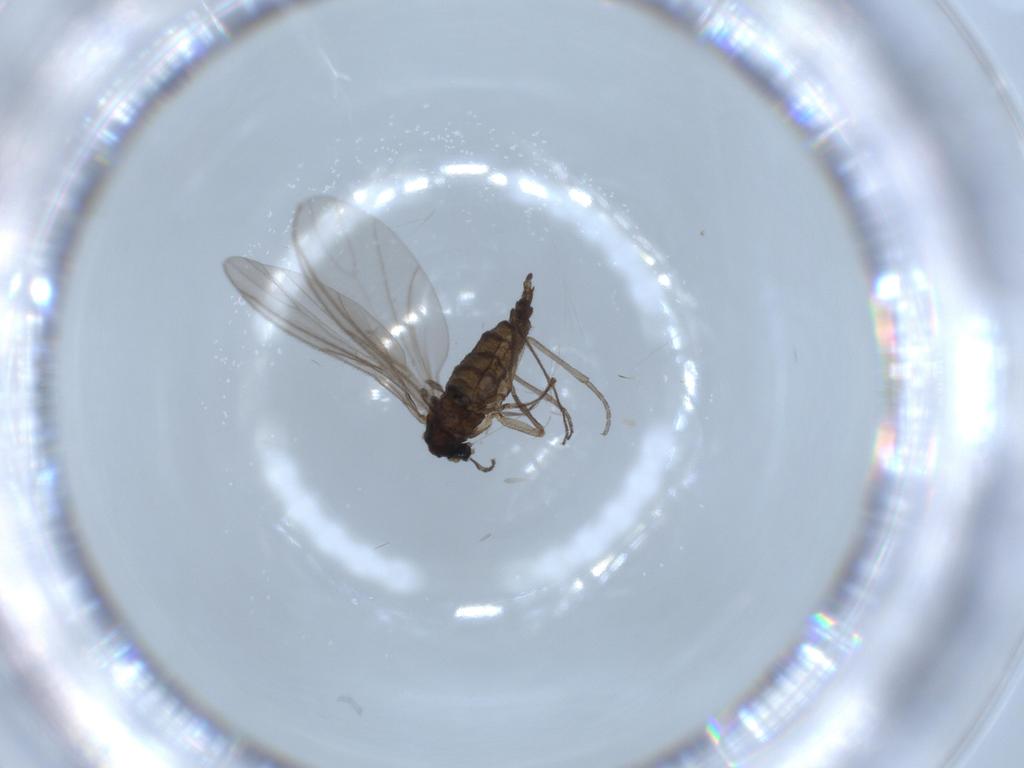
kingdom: Animalia
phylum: Arthropoda
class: Insecta
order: Diptera
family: Sciaridae
